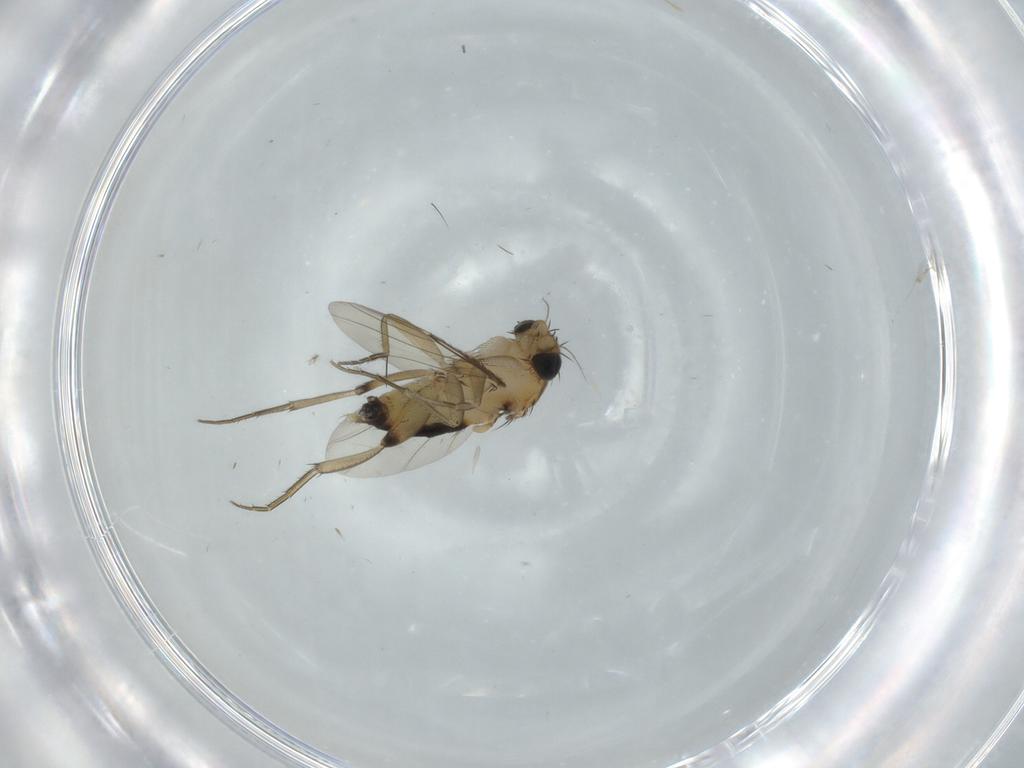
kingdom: Animalia
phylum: Arthropoda
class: Insecta
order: Diptera
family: Phoridae
